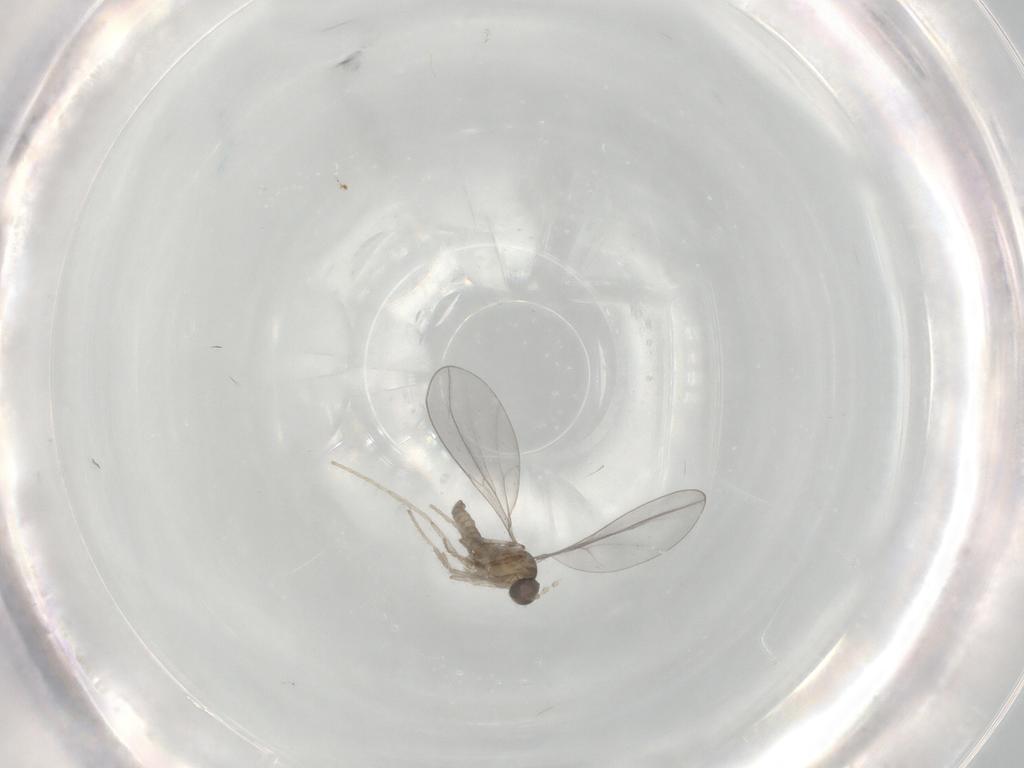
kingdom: Animalia
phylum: Arthropoda
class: Insecta
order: Diptera
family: Cecidomyiidae
